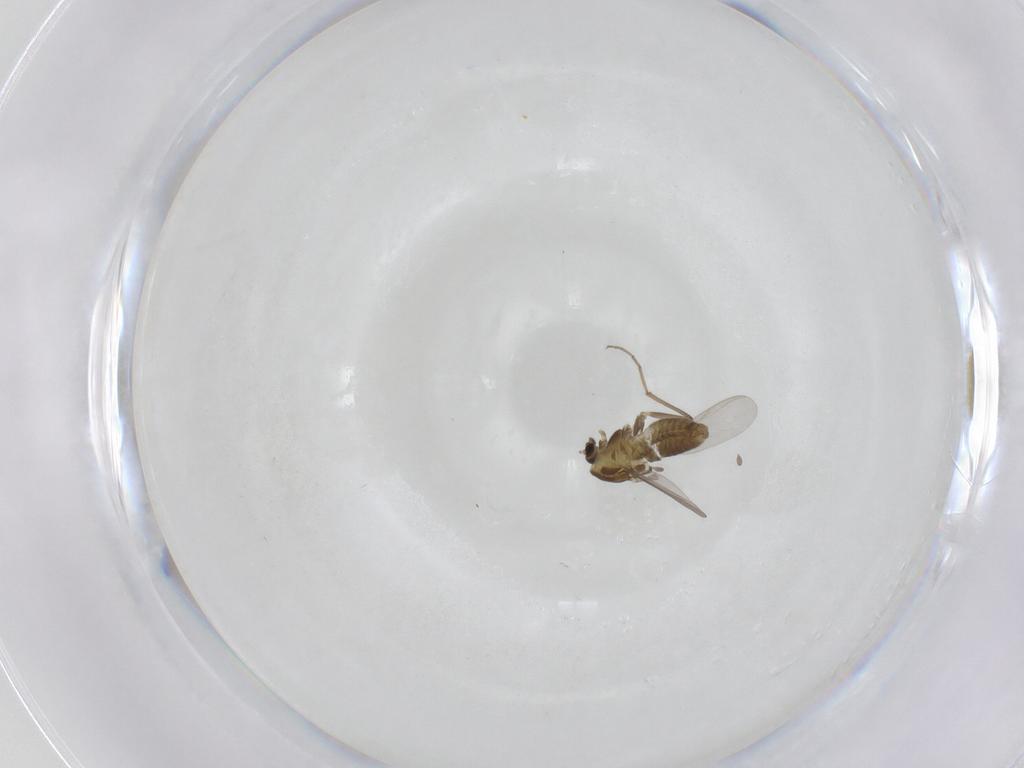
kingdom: Animalia
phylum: Arthropoda
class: Insecta
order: Diptera
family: Chironomidae
